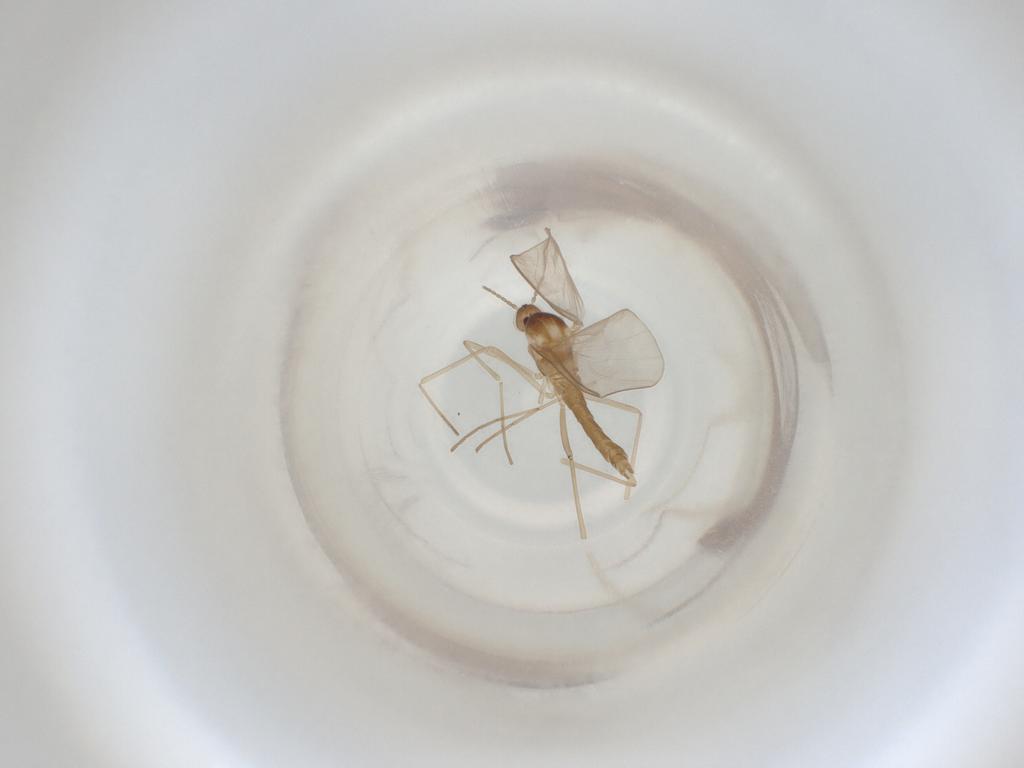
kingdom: Animalia
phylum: Arthropoda
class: Insecta
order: Diptera
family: Cecidomyiidae
